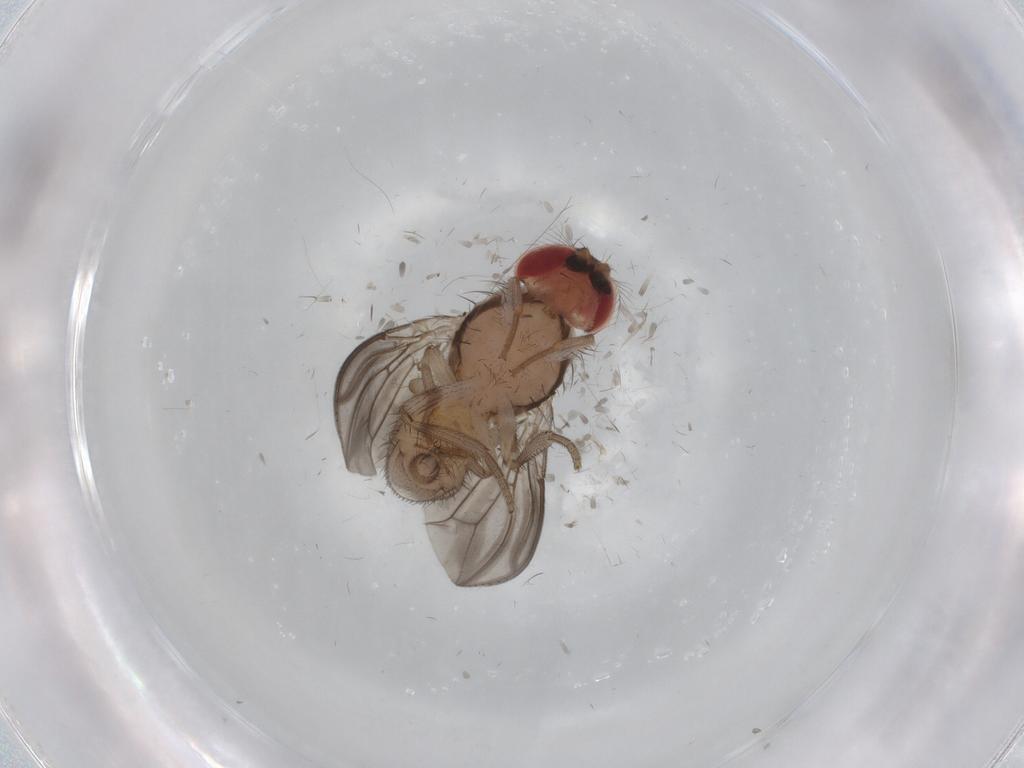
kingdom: Animalia
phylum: Arthropoda
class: Insecta
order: Diptera
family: Drosophilidae
